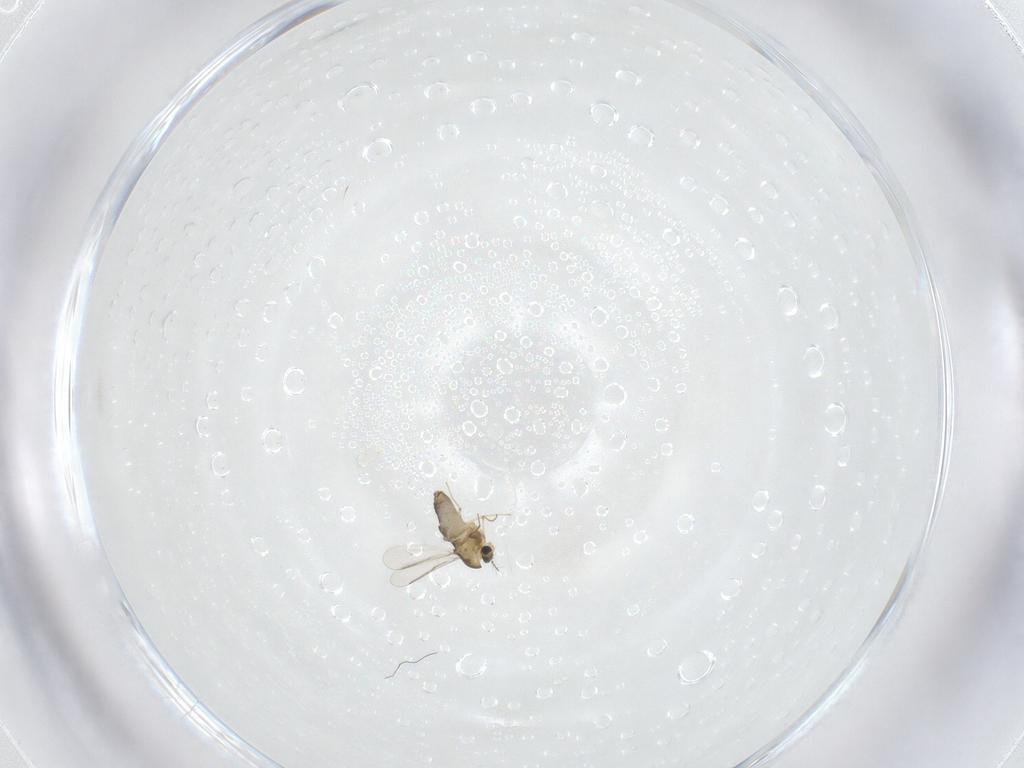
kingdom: Animalia
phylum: Arthropoda
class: Insecta
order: Diptera
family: Chironomidae
